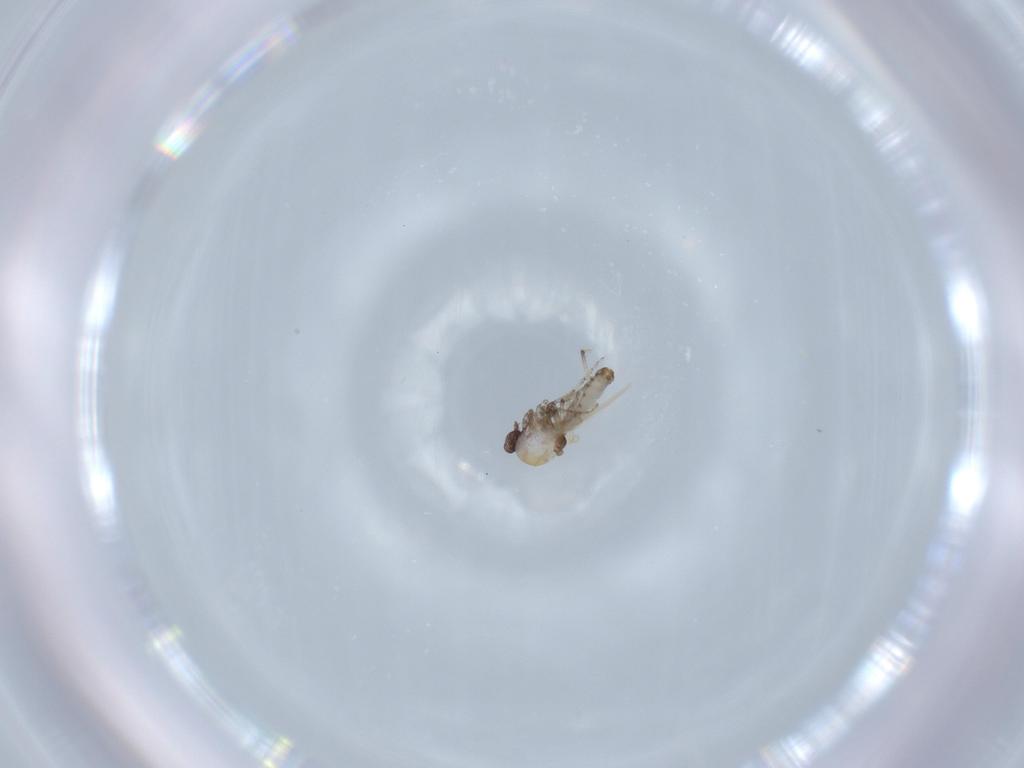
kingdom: Animalia
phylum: Arthropoda
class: Insecta
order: Diptera
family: Ceratopogonidae
